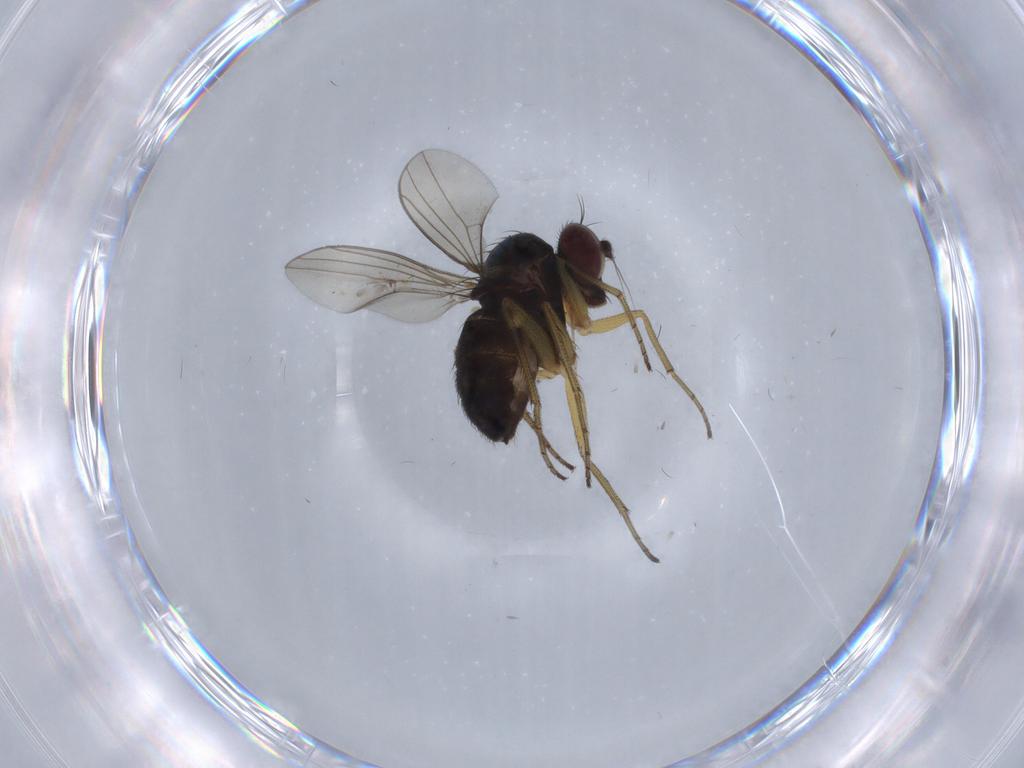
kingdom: Animalia
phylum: Arthropoda
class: Insecta
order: Diptera
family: Dolichopodidae
